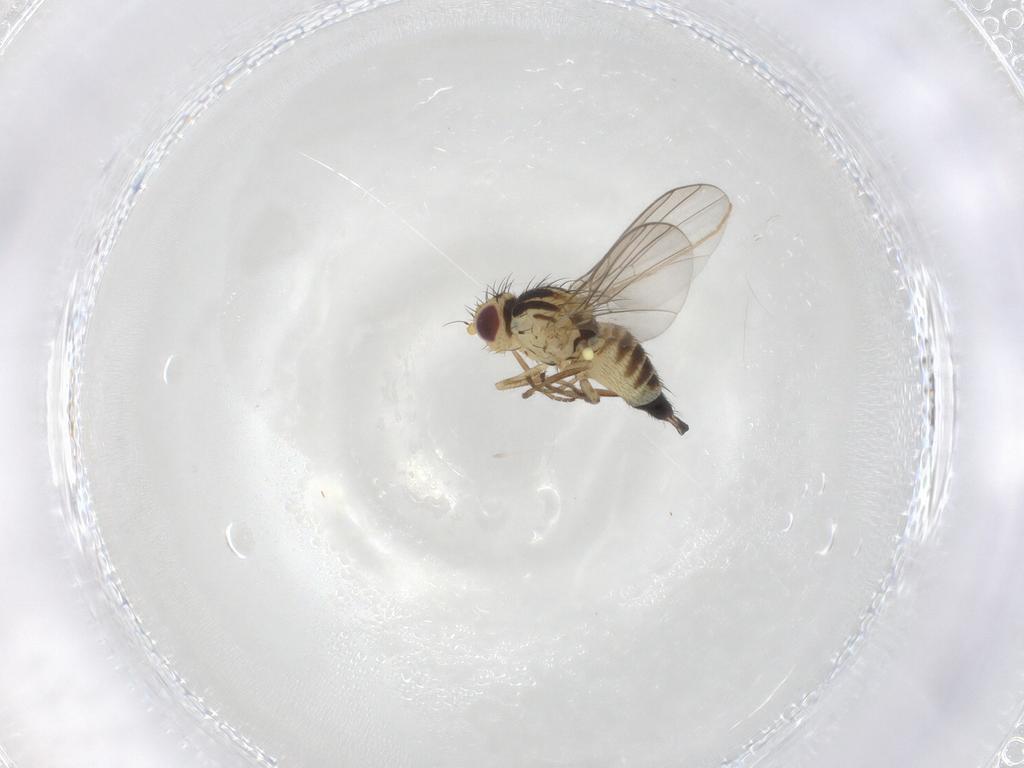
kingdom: Animalia
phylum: Arthropoda
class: Insecta
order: Diptera
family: Agromyzidae
